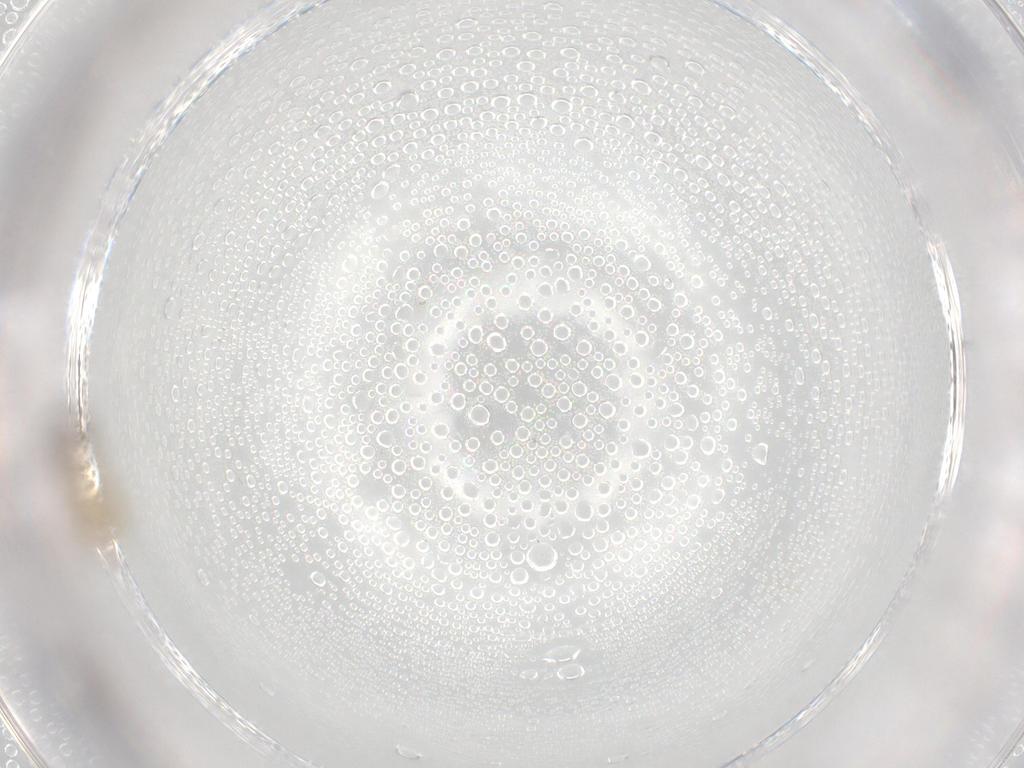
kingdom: Animalia
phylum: Arthropoda
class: Insecta
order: Diptera
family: Cecidomyiidae
